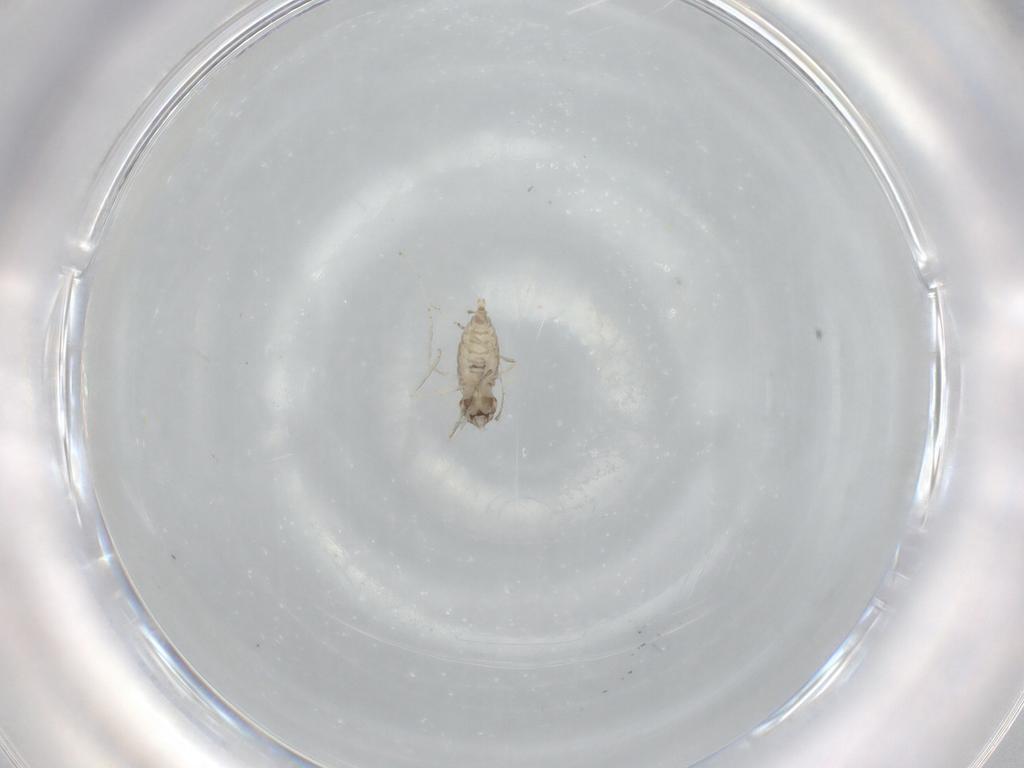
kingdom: Animalia
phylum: Arthropoda
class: Insecta
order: Diptera
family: Cecidomyiidae
